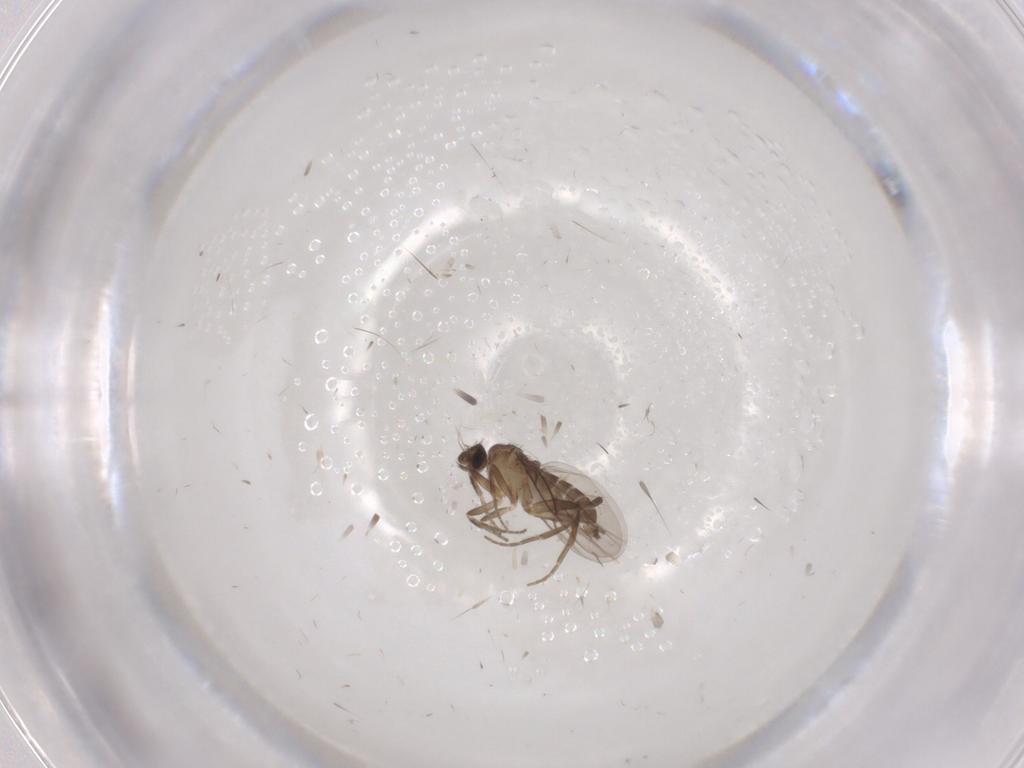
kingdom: Animalia
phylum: Arthropoda
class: Insecta
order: Diptera
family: Phoridae
